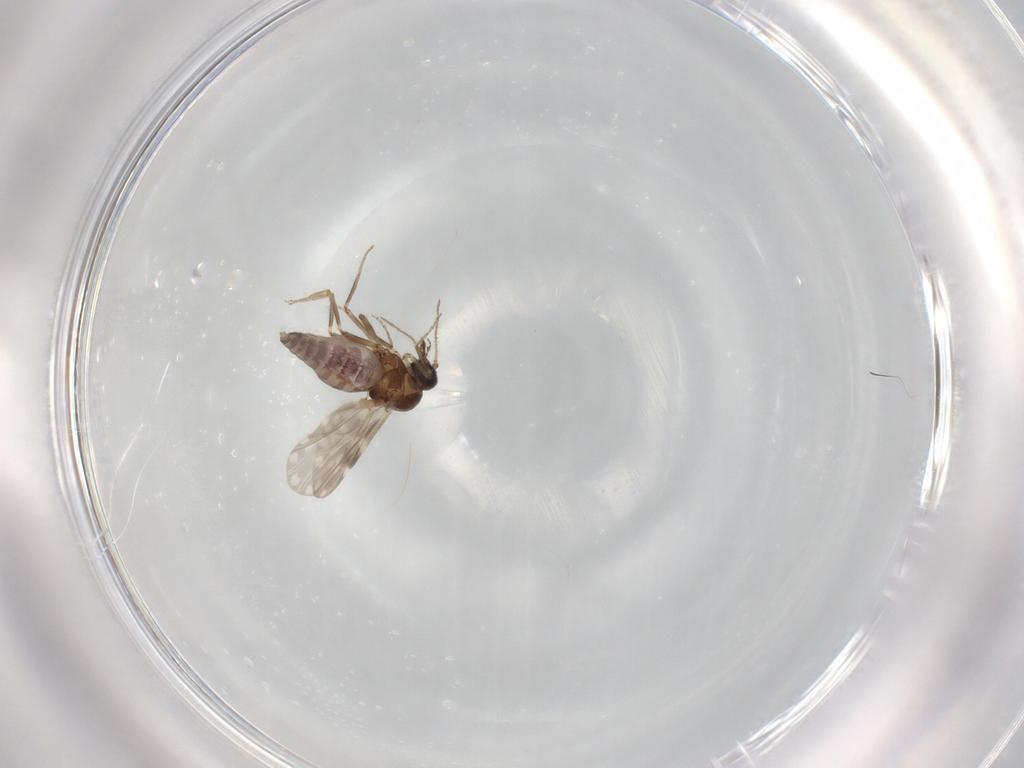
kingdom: Animalia
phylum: Arthropoda
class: Insecta
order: Diptera
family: Ceratopogonidae
